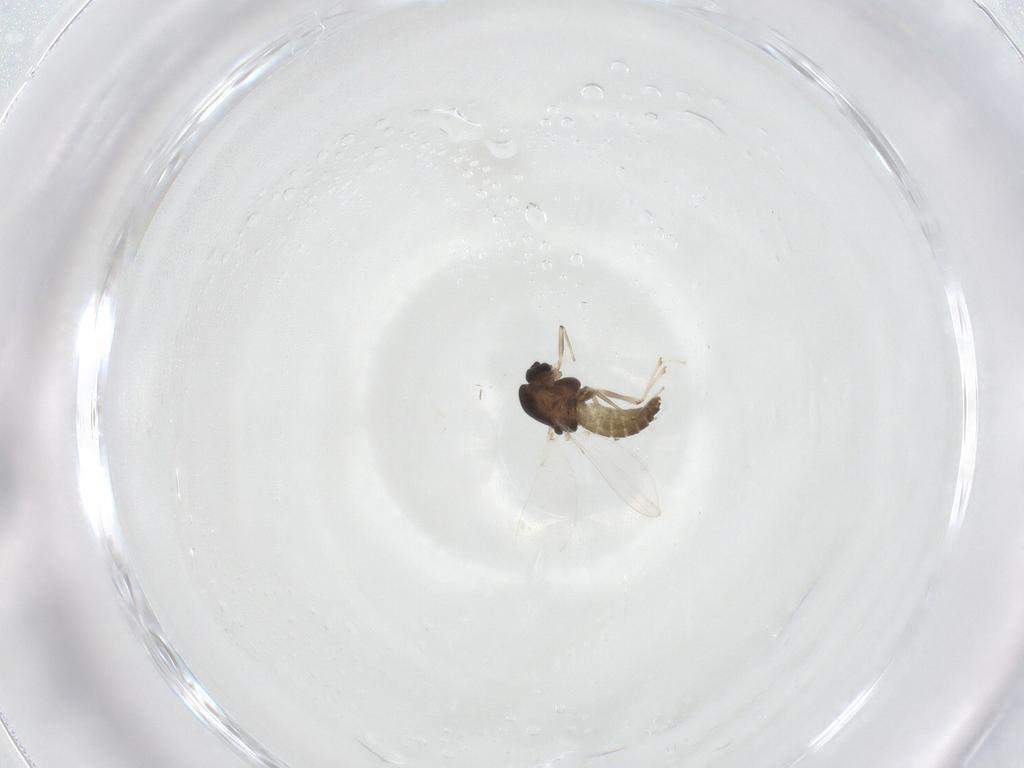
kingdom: Animalia
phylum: Arthropoda
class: Insecta
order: Diptera
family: Chironomidae
